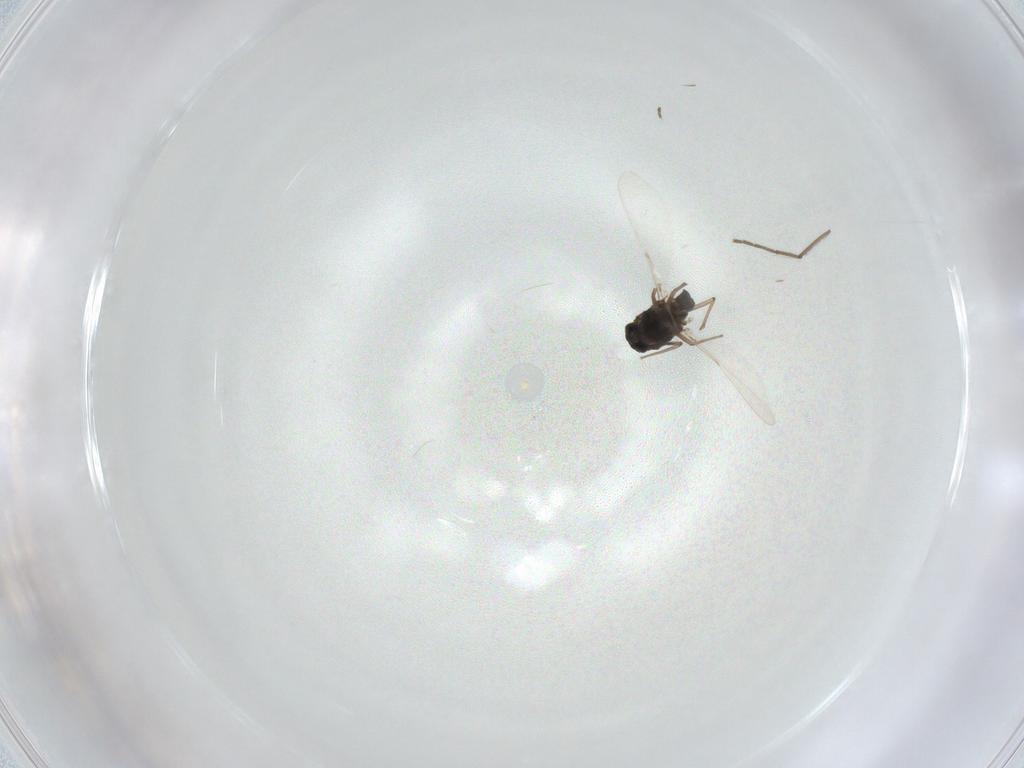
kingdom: Animalia
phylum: Arthropoda
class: Insecta
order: Diptera
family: Chironomidae
